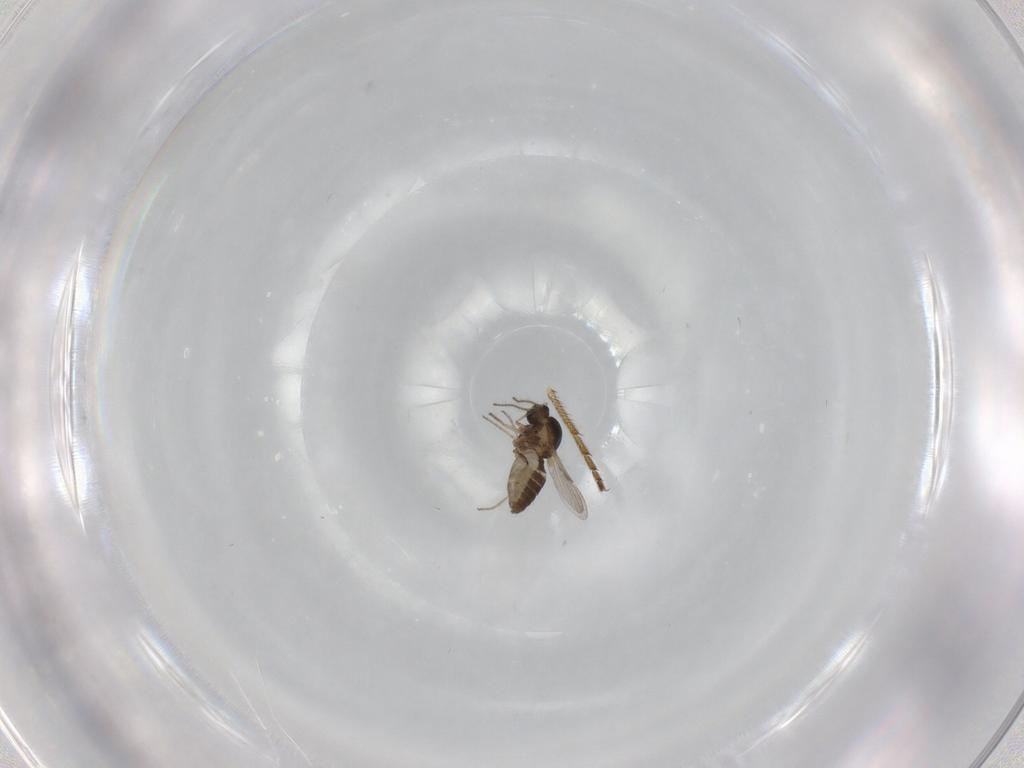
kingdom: Animalia
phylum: Arthropoda
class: Insecta
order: Diptera
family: Ceratopogonidae
